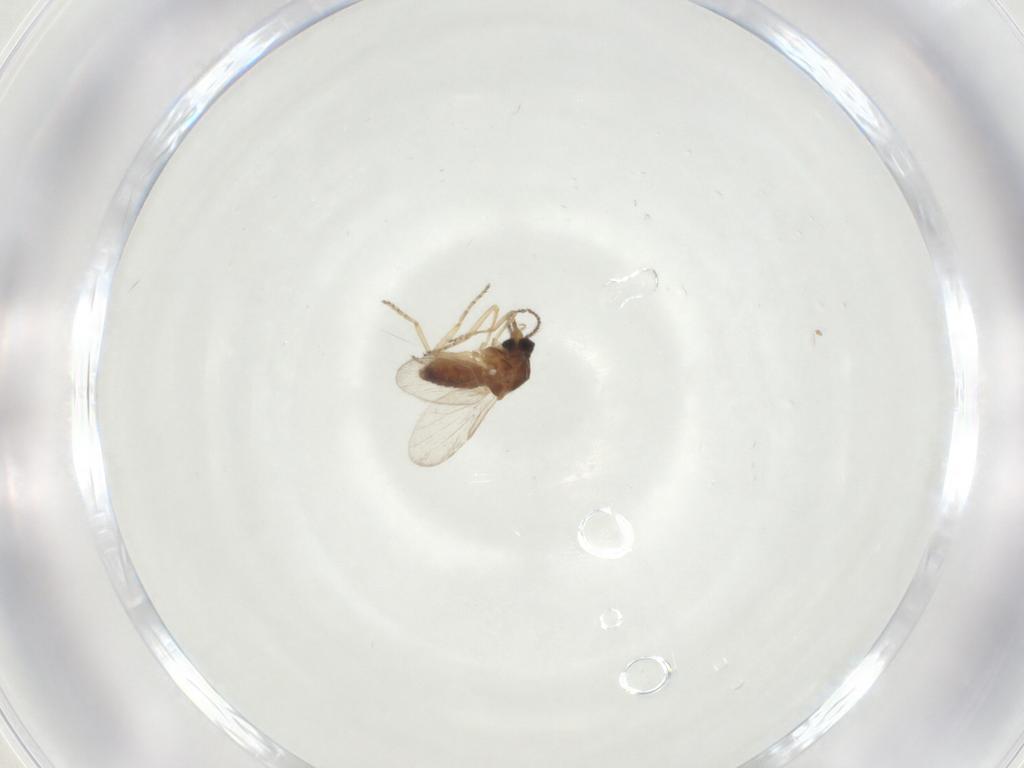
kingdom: Animalia
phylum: Arthropoda
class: Insecta
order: Diptera
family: Ceratopogonidae
